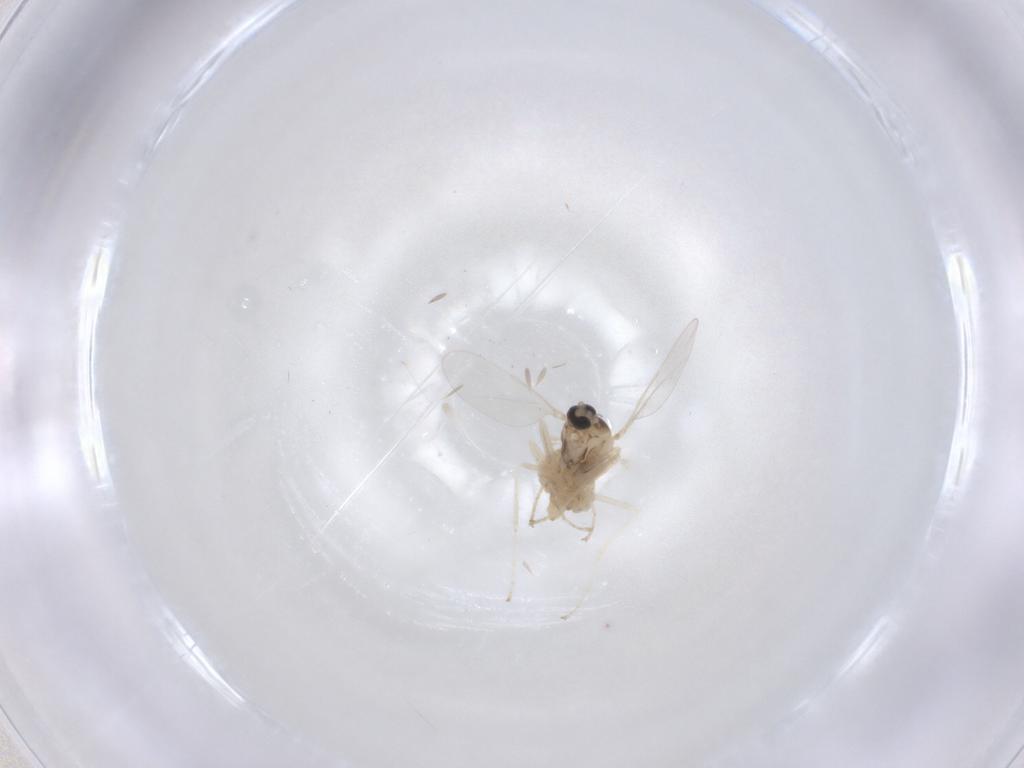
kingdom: Animalia
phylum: Arthropoda
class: Insecta
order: Diptera
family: Cecidomyiidae
